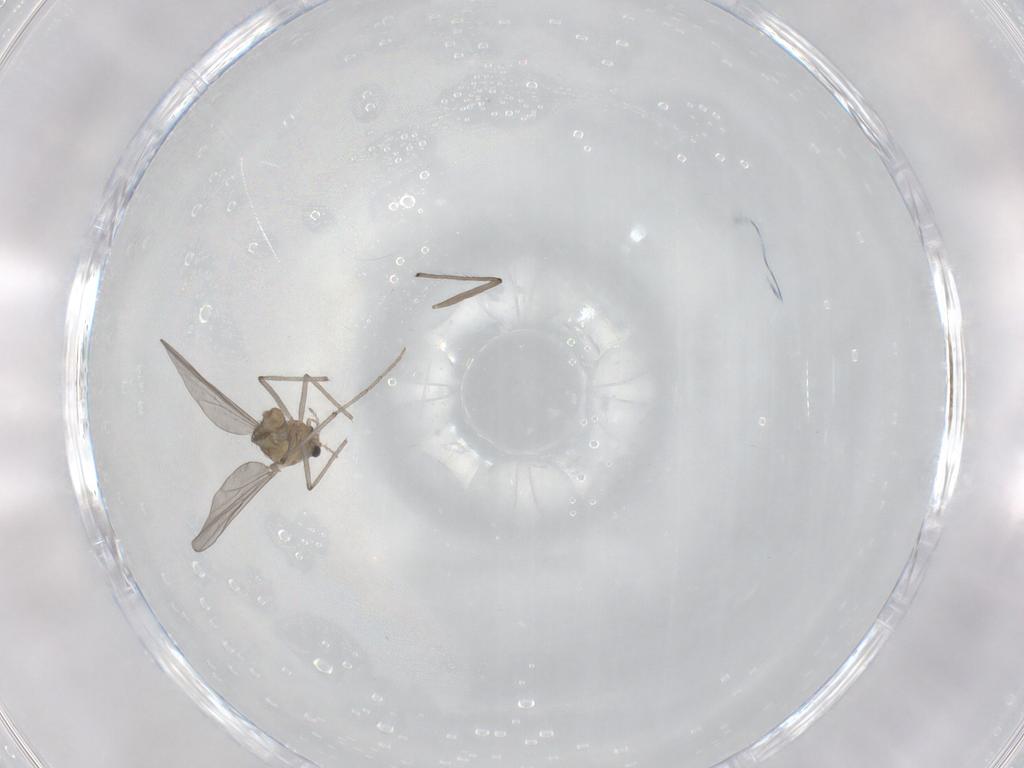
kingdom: Animalia
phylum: Arthropoda
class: Insecta
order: Diptera
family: Chironomidae
